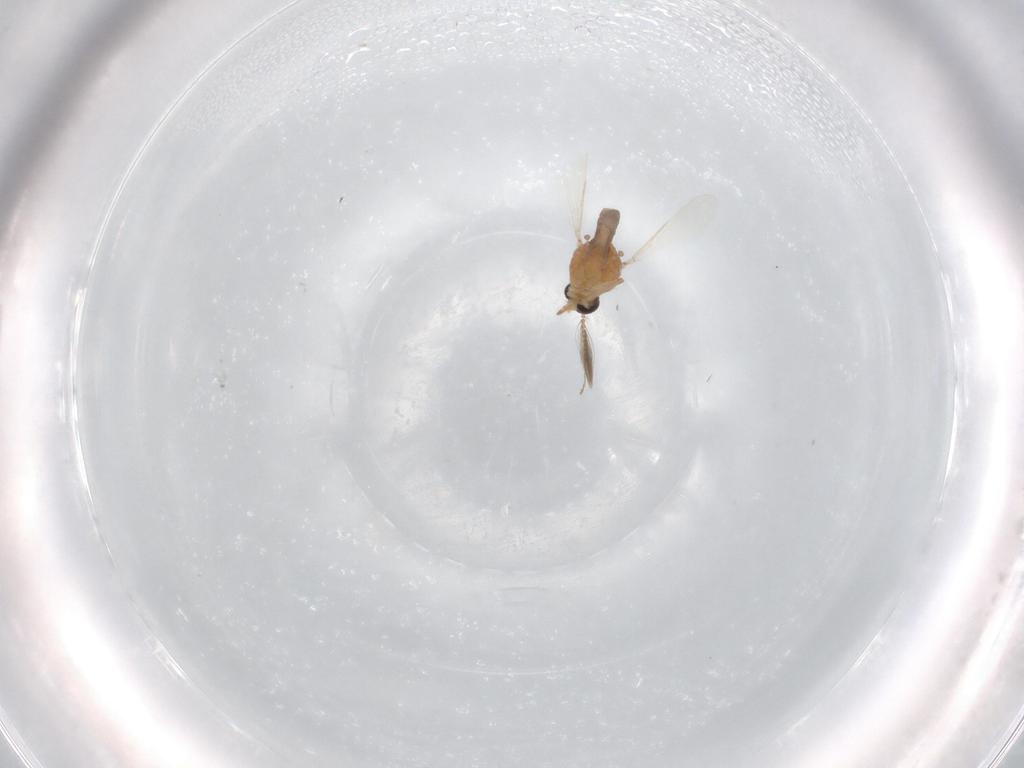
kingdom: Animalia
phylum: Arthropoda
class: Insecta
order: Diptera
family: Ceratopogonidae
